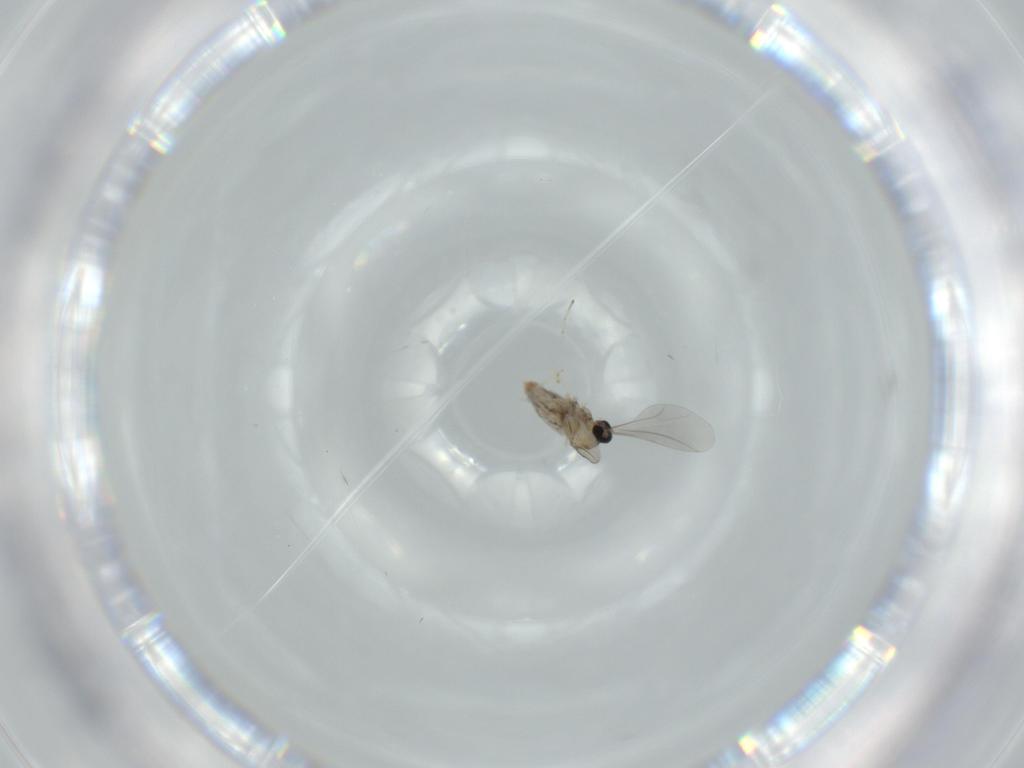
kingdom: Animalia
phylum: Arthropoda
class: Insecta
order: Diptera
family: Cecidomyiidae
